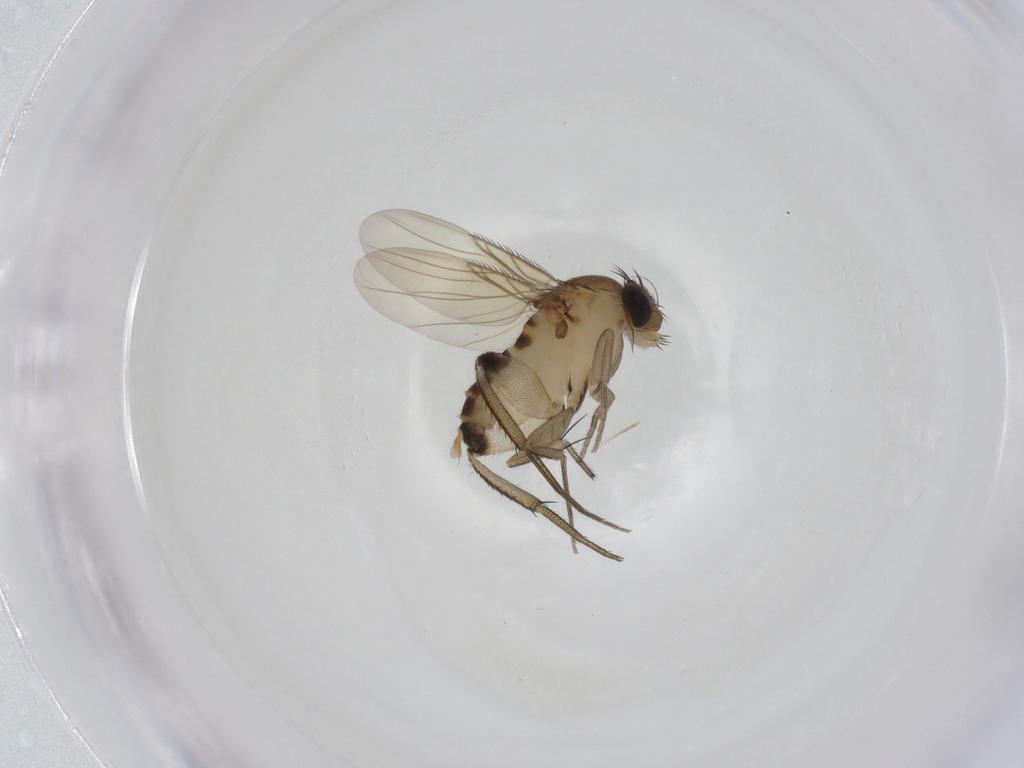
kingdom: Animalia
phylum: Arthropoda
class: Insecta
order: Diptera
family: Phoridae
